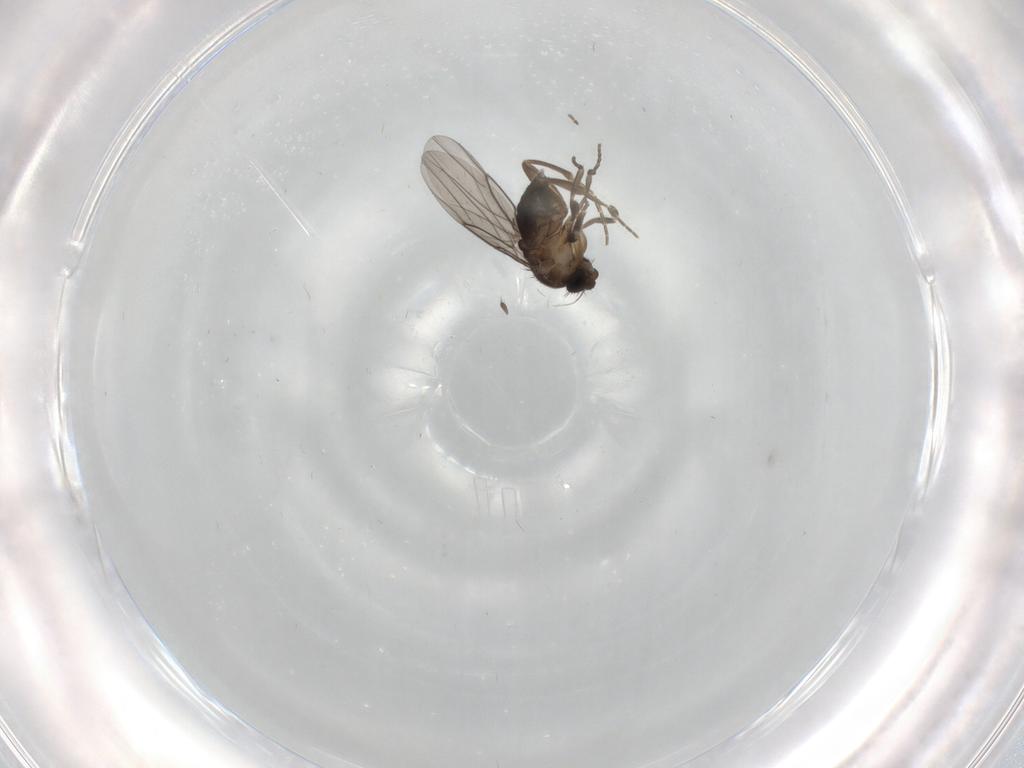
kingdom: Animalia
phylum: Arthropoda
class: Insecta
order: Diptera
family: Phoridae
